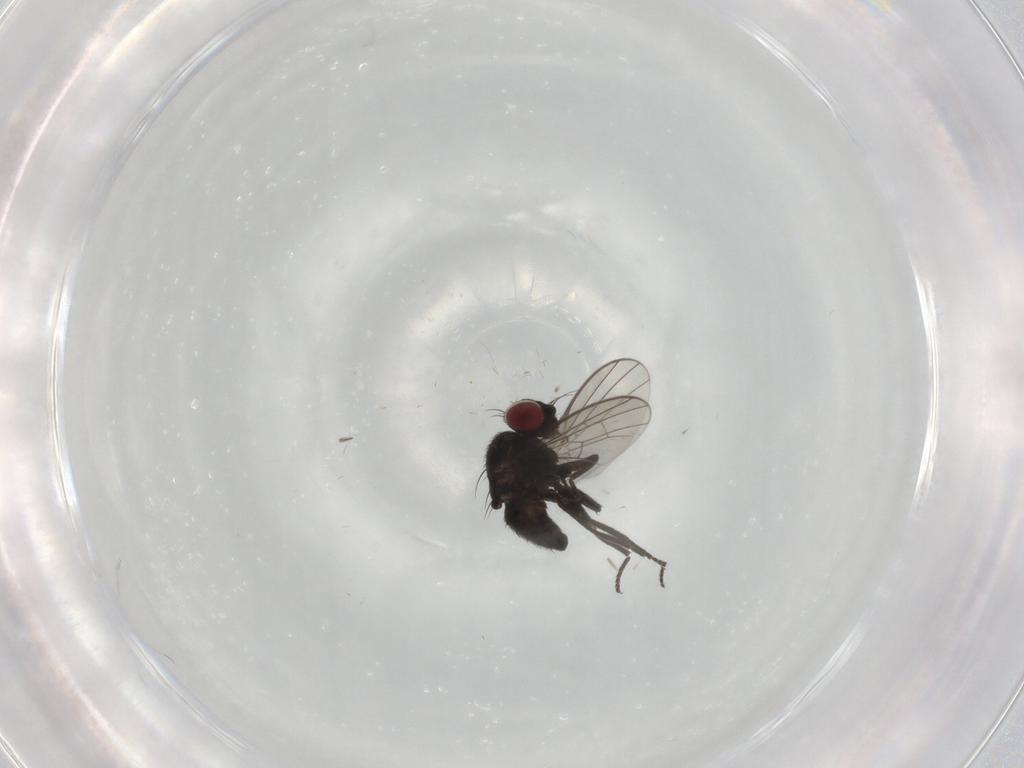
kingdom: Animalia
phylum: Arthropoda
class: Insecta
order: Diptera
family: Agromyzidae
